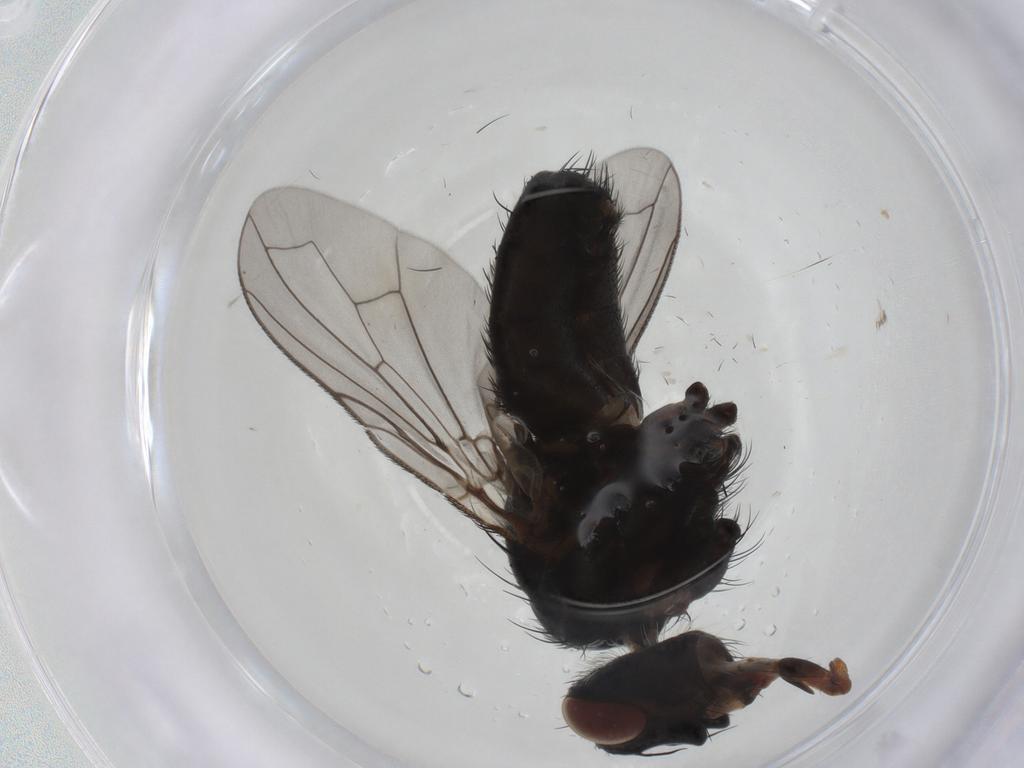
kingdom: Animalia
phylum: Arthropoda
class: Insecta
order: Diptera
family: Tachinidae
